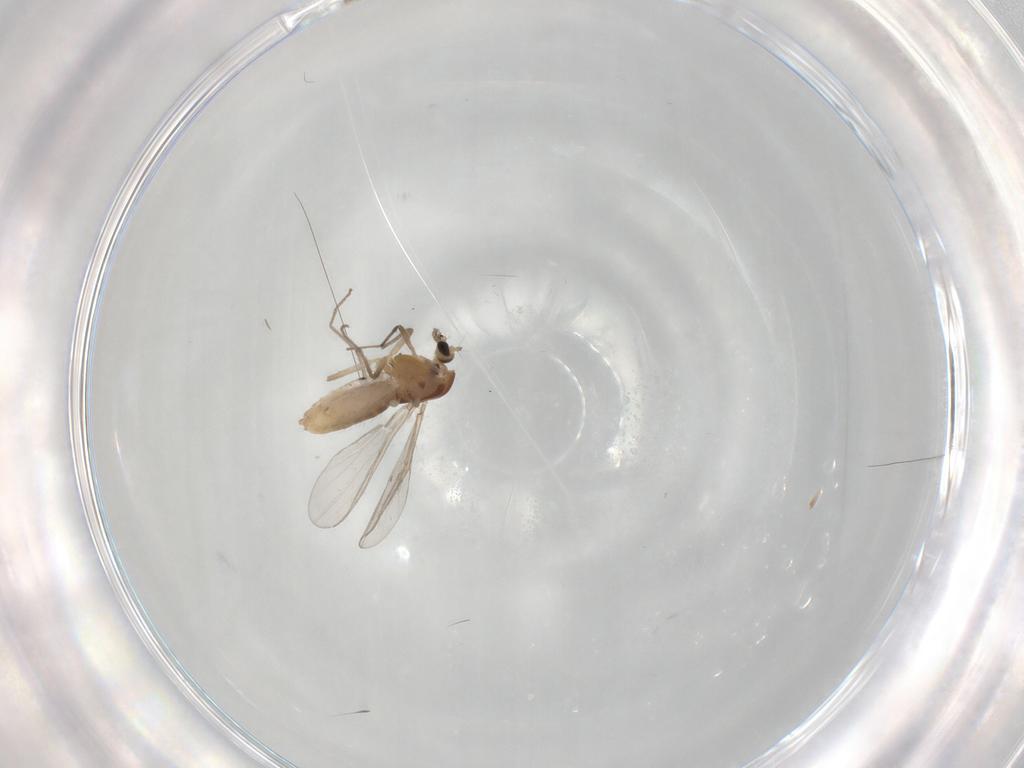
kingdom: Animalia
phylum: Arthropoda
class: Insecta
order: Diptera
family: Chironomidae
